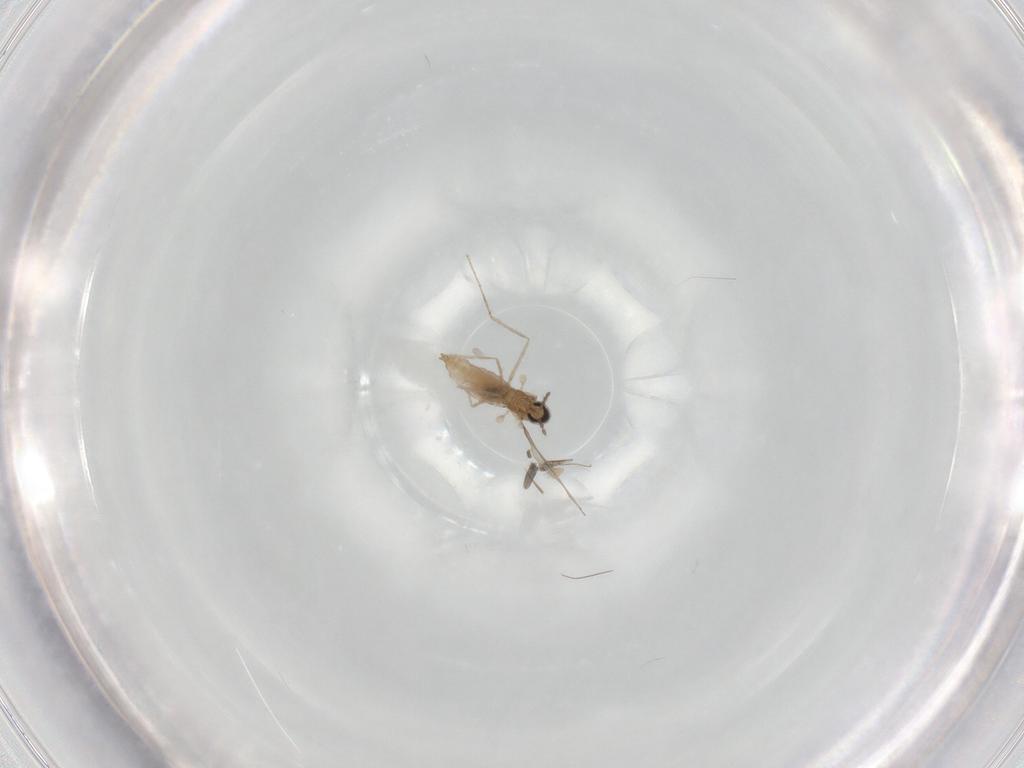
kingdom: Animalia
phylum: Arthropoda
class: Insecta
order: Diptera
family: Cecidomyiidae
